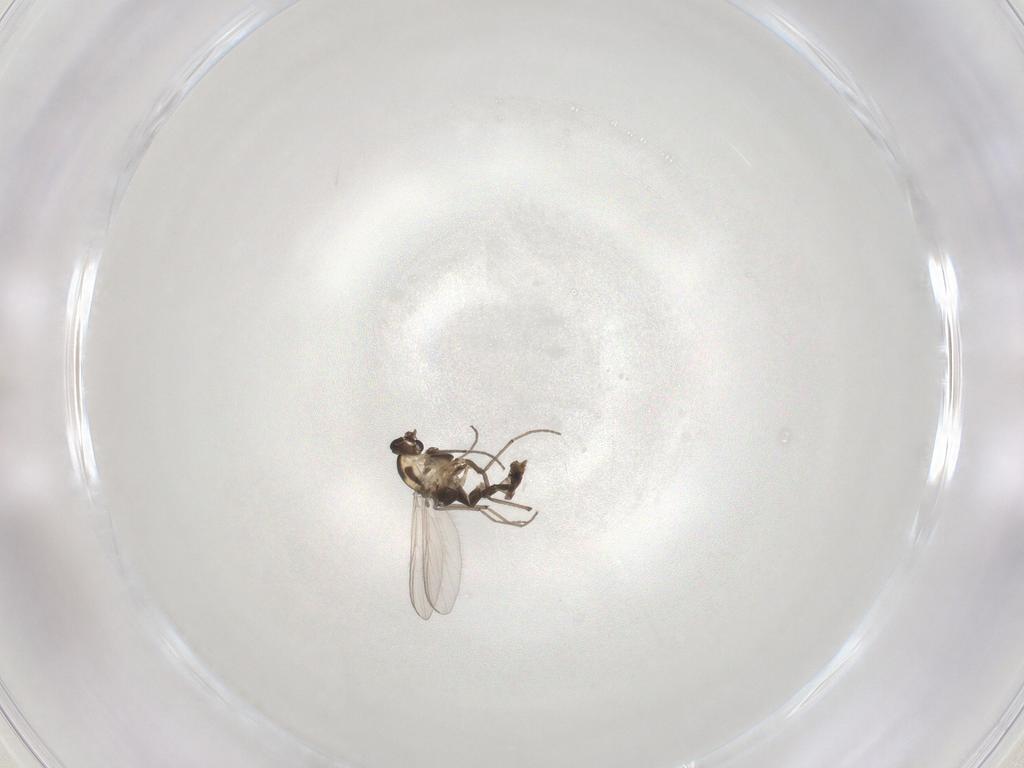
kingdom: Animalia
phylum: Arthropoda
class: Insecta
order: Diptera
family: Chironomidae
